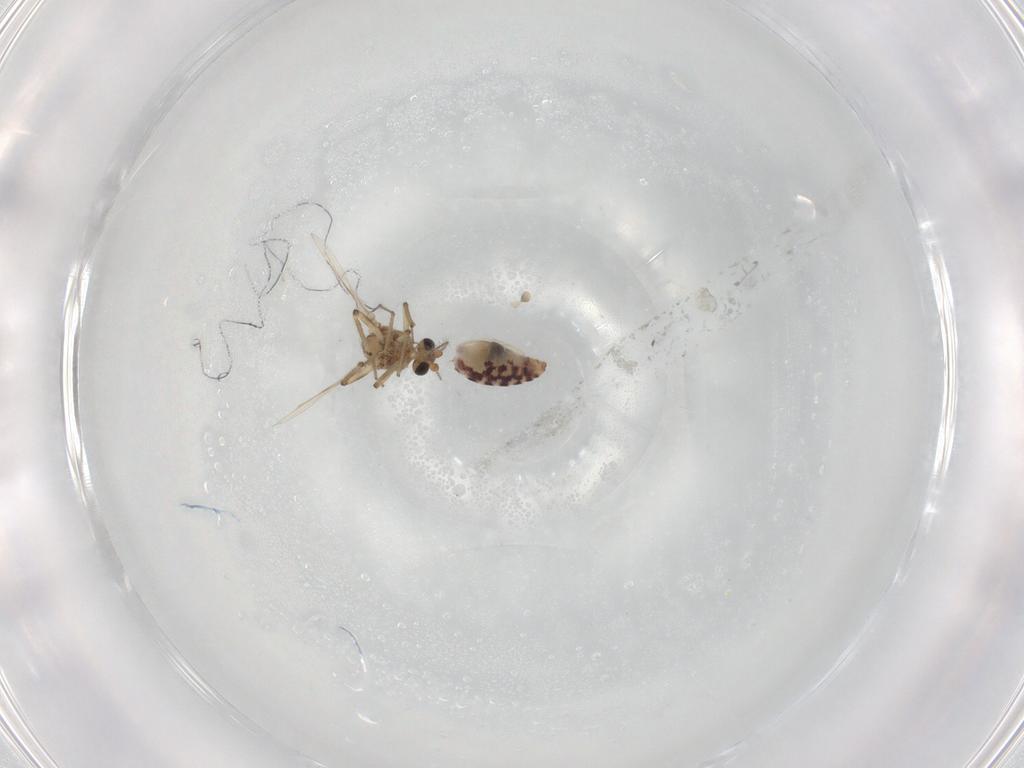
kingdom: Animalia
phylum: Arthropoda
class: Insecta
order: Diptera
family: Ceratopogonidae
